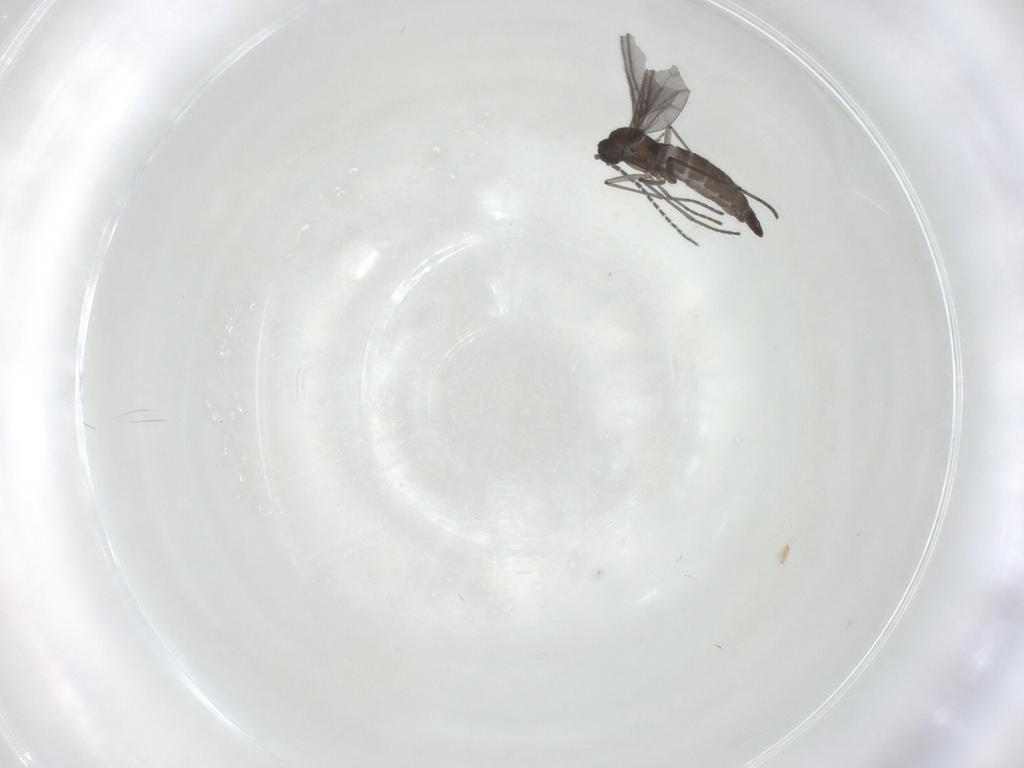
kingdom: Animalia
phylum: Arthropoda
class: Insecta
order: Diptera
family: Sciaridae
